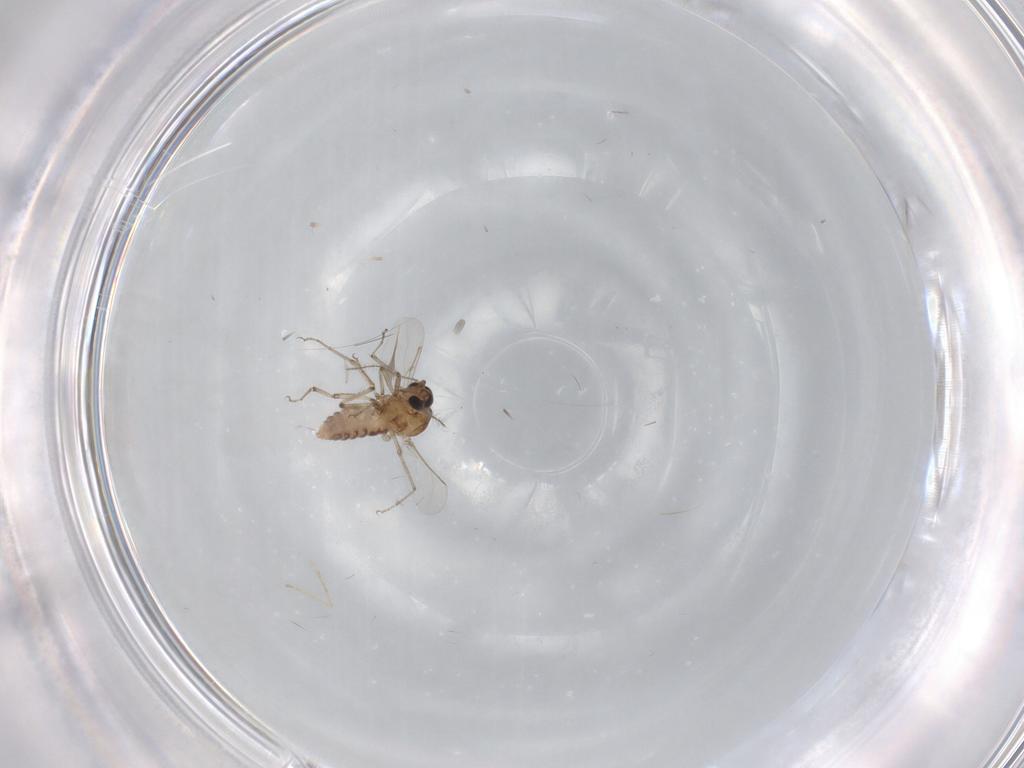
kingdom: Animalia
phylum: Arthropoda
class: Insecta
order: Diptera
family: Ceratopogonidae
